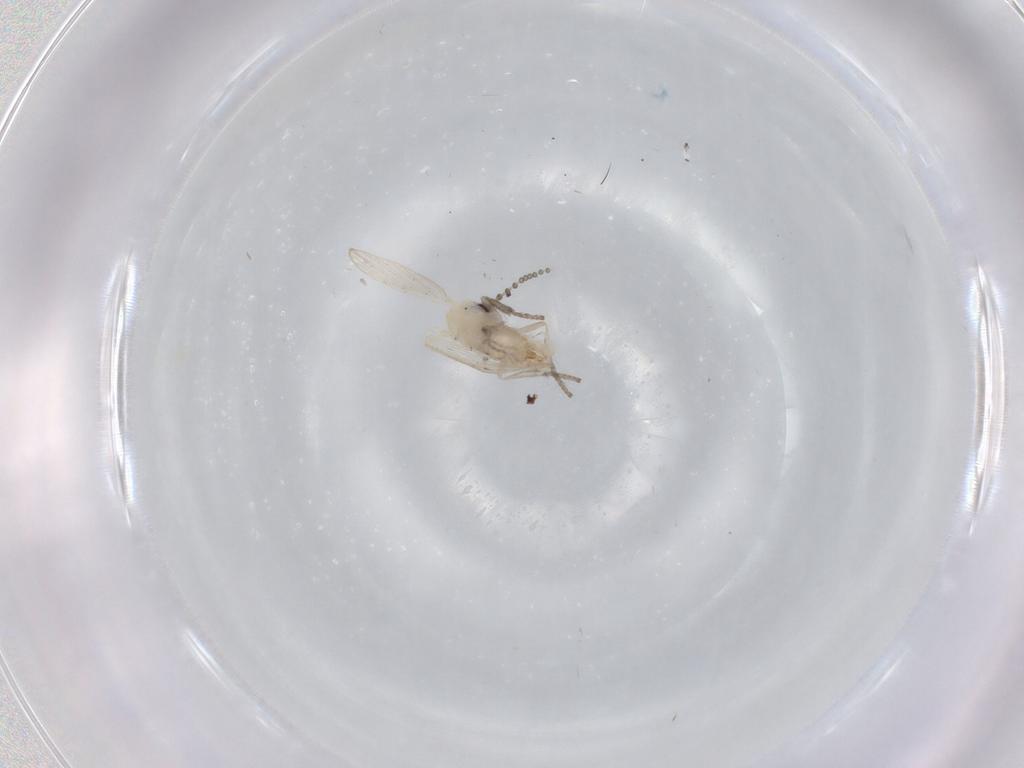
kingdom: Animalia
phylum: Arthropoda
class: Insecta
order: Diptera
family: Psychodidae
